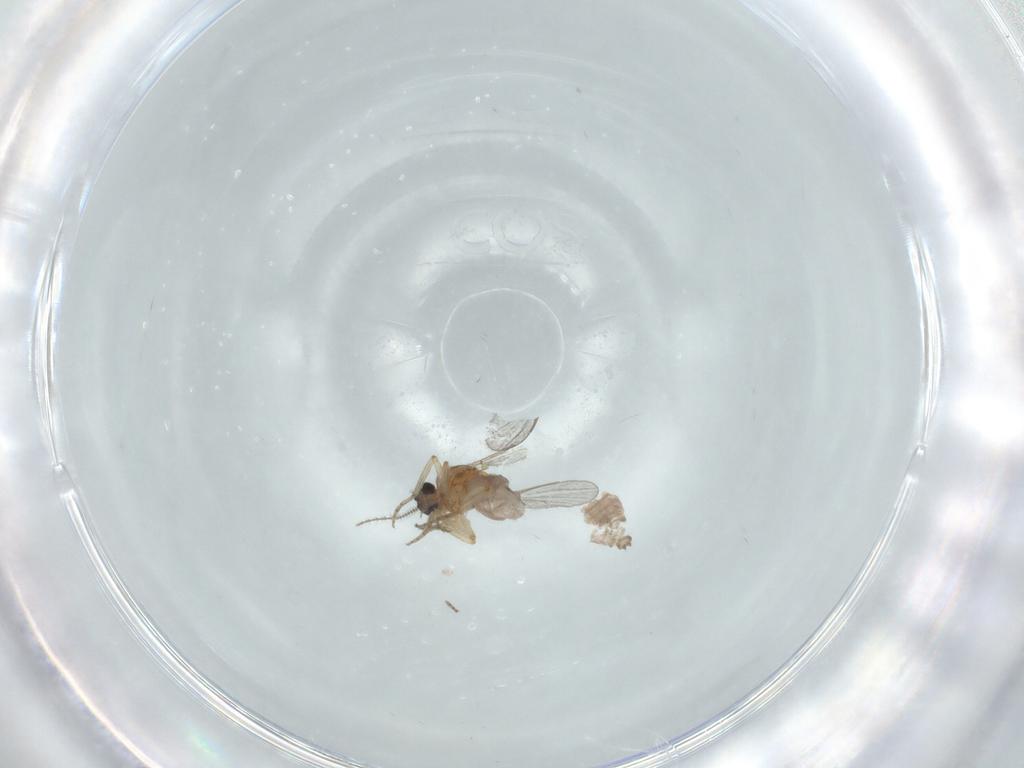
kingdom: Animalia
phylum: Arthropoda
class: Insecta
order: Diptera
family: Ceratopogonidae
